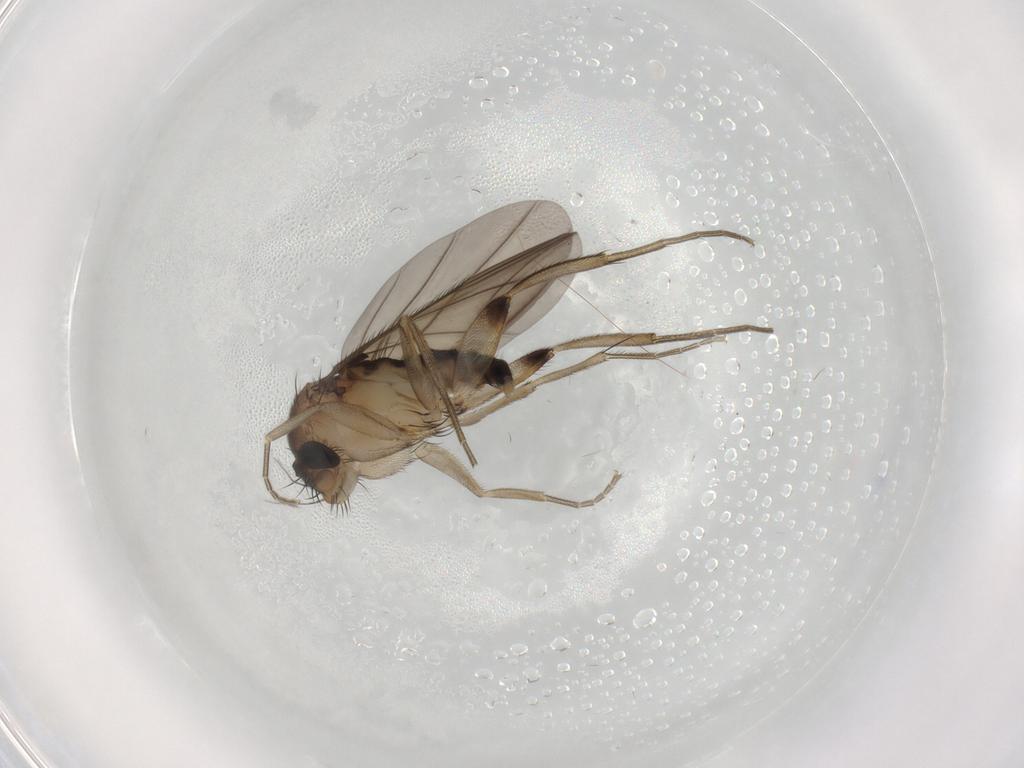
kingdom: Animalia
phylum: Arthropoda
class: Insecta
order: Diptera
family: Phoridae
